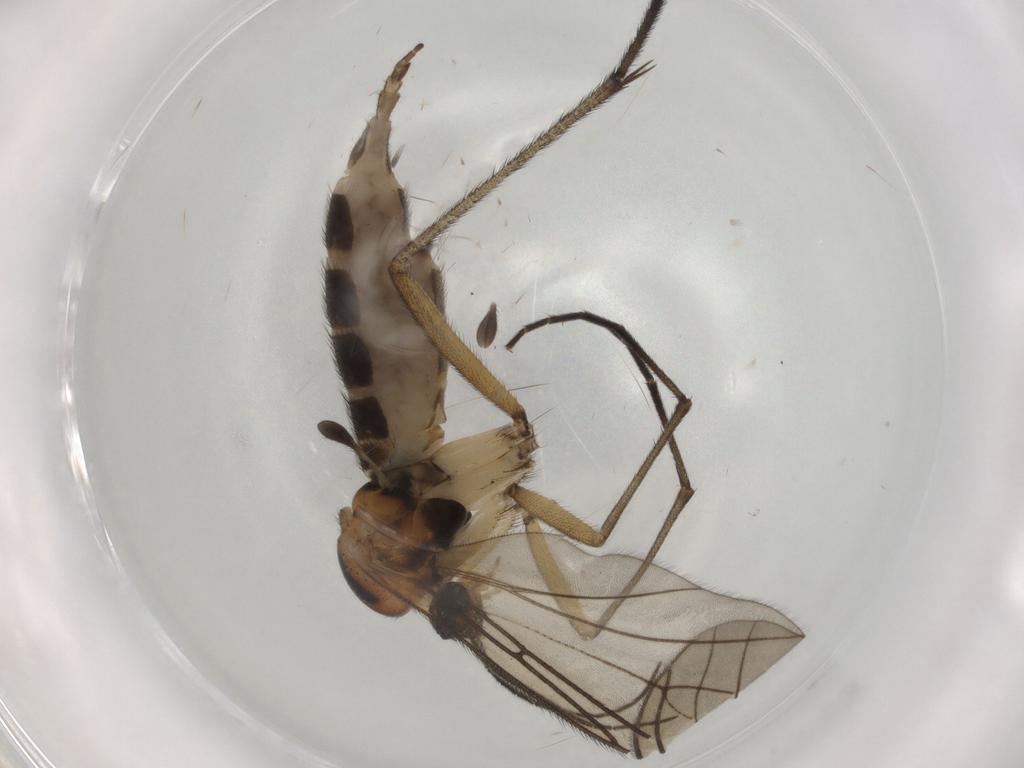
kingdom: Animalia
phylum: Arthropoda
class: Insecta
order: Diptera
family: Sciaridae
